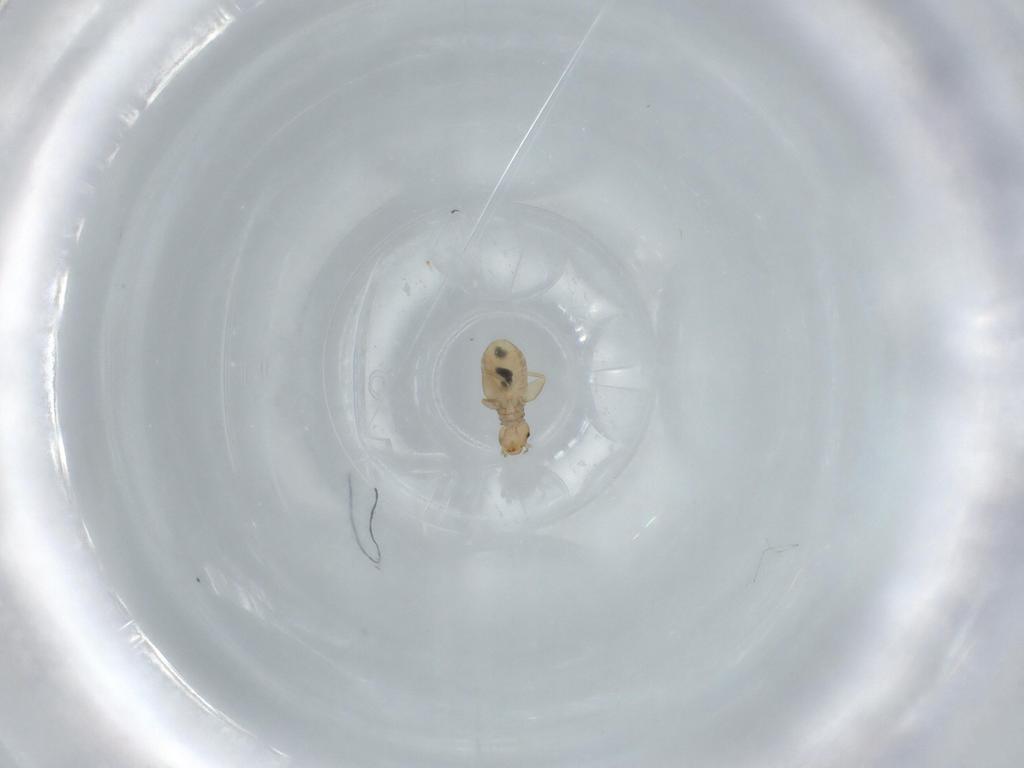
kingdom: Animalia
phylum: Arthropoda
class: Insecta
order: Psocodea
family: Liposcelididae
